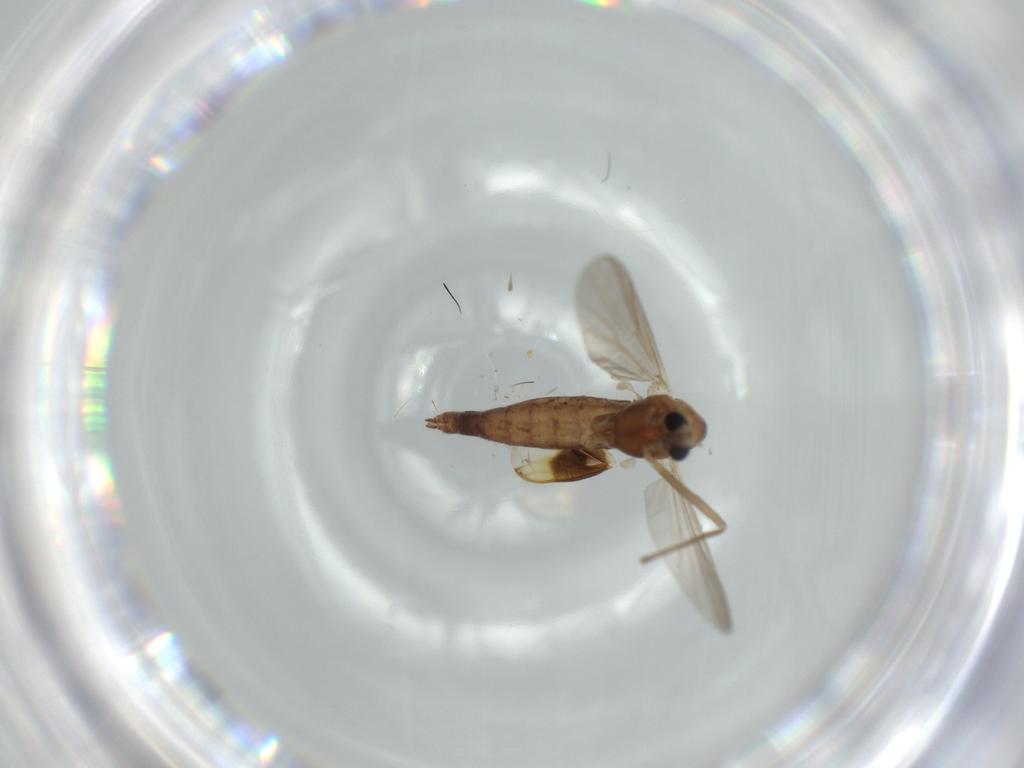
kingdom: Animalia
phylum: Arthropoda
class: Insecta
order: Diptera
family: Chironomidae
